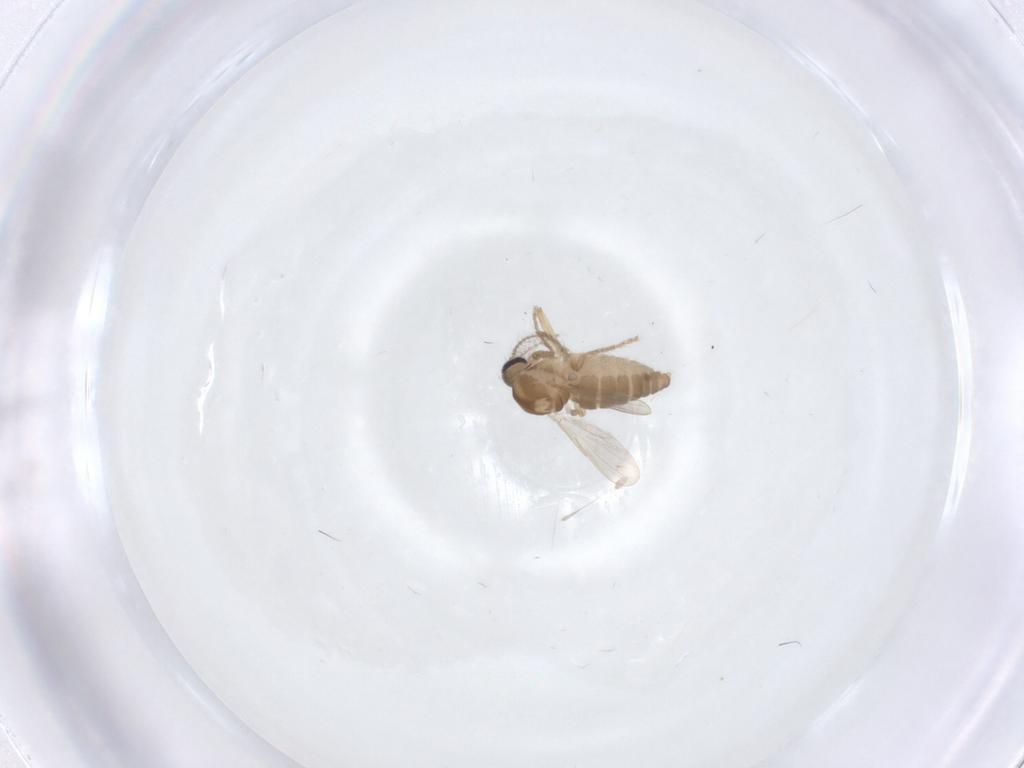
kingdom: Animalia
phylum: Arthropoda
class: Insecta
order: Diptera
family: Ceratopogonidae
